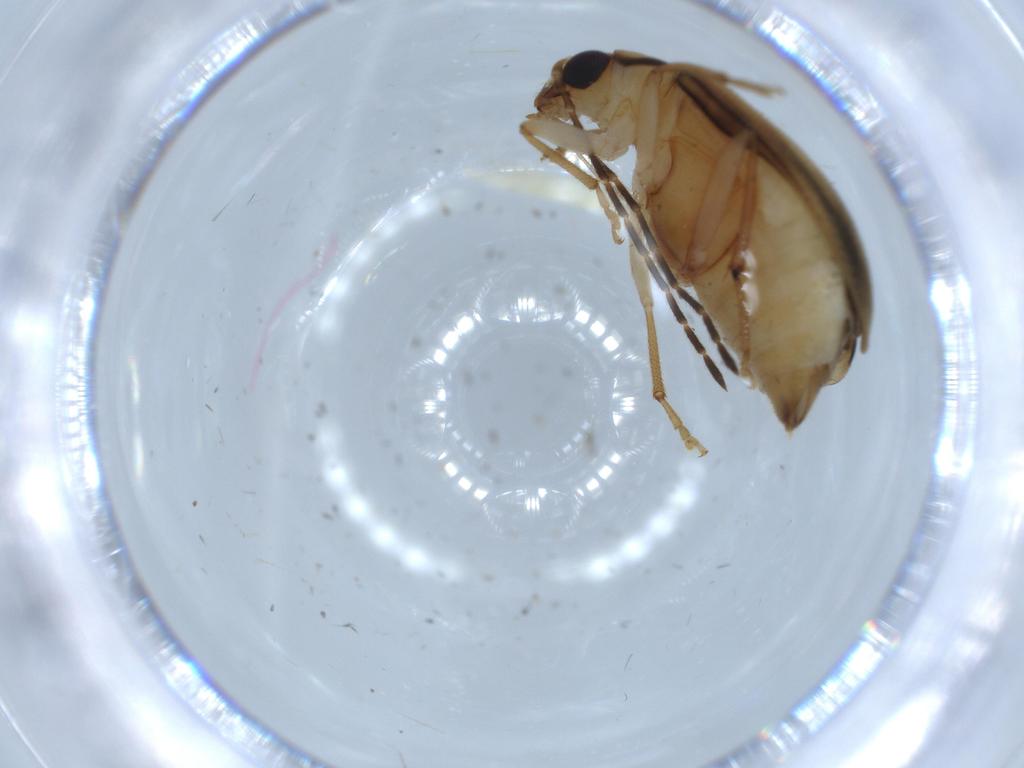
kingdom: Animalia
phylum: Arthropoda
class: Insecta
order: Coleoptera
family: Chrysomelidae
